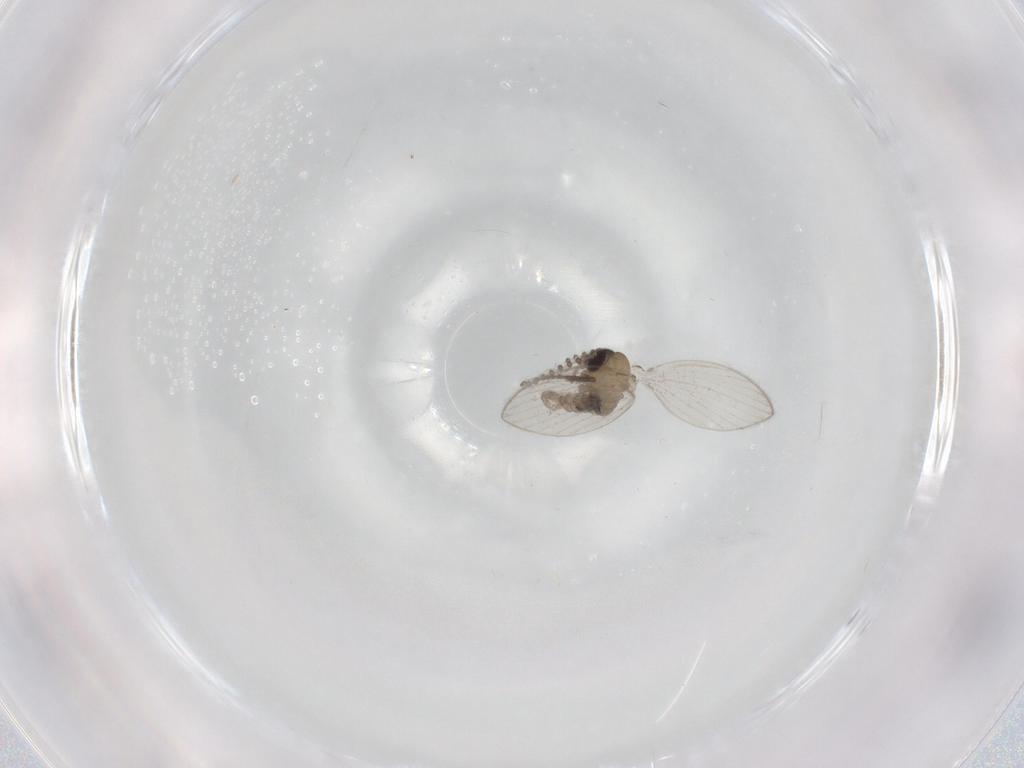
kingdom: Animalia
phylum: Arthropoda
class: Insecta
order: Diptera
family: Psychodidae
